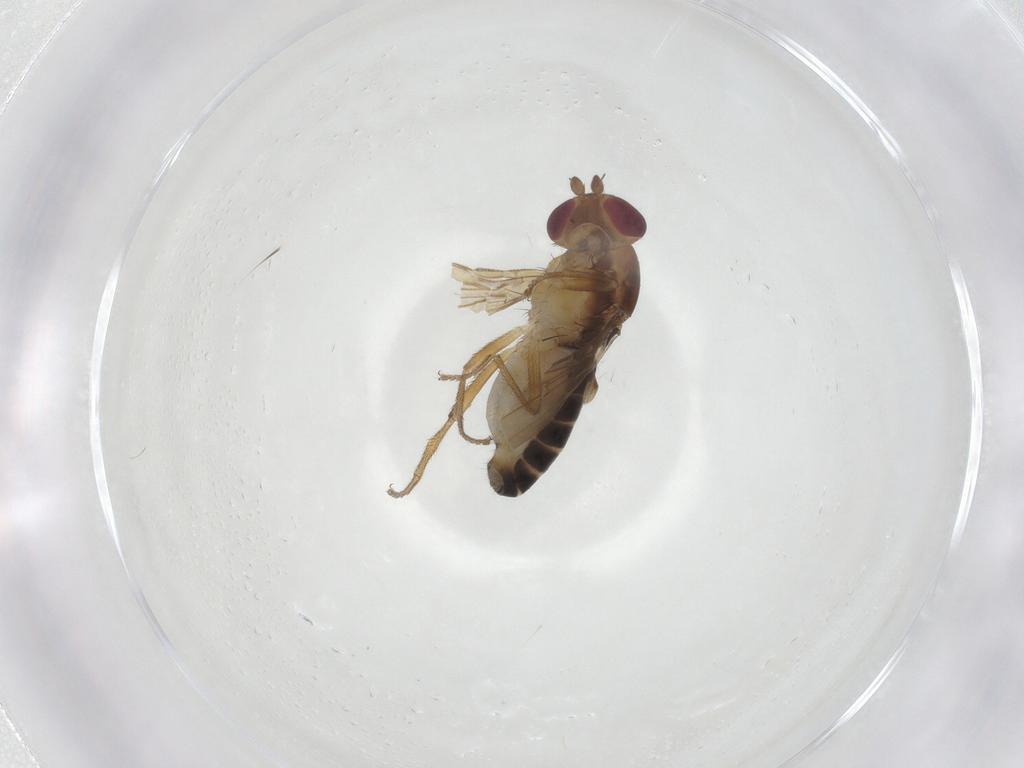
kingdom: Animalia
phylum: Arthropoda
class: Insecta
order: Diptera
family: Clusiidae
